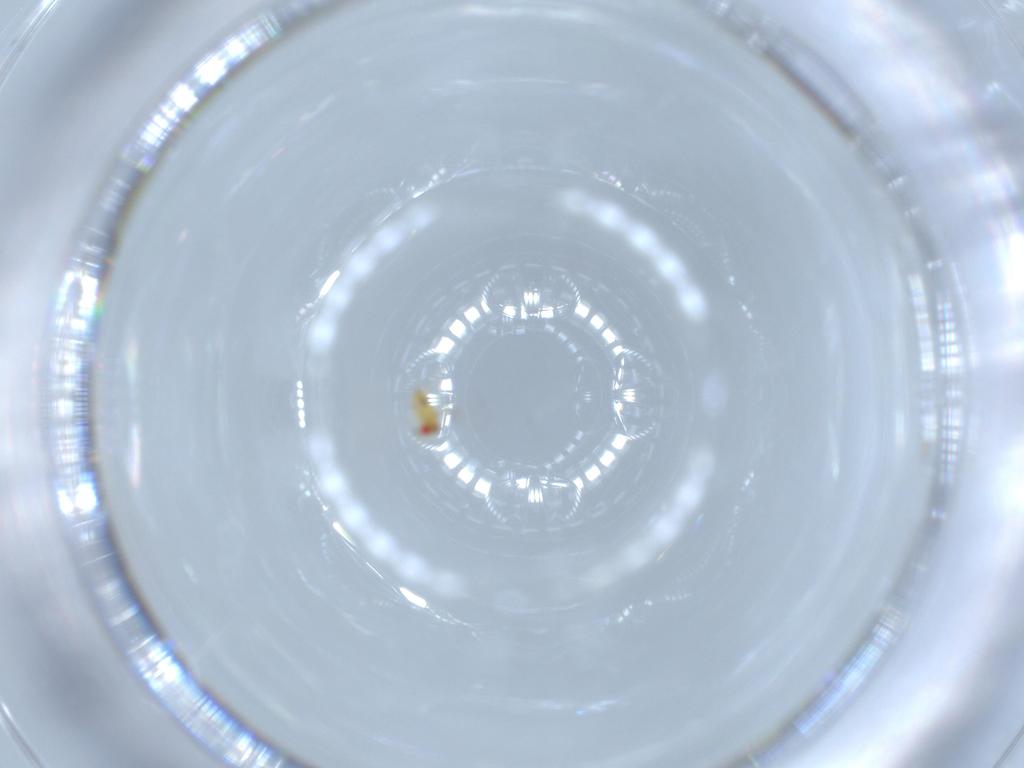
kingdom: Animalia
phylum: Arthropoda
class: Insecta
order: Hymenoptera
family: Trichogrammatidae
